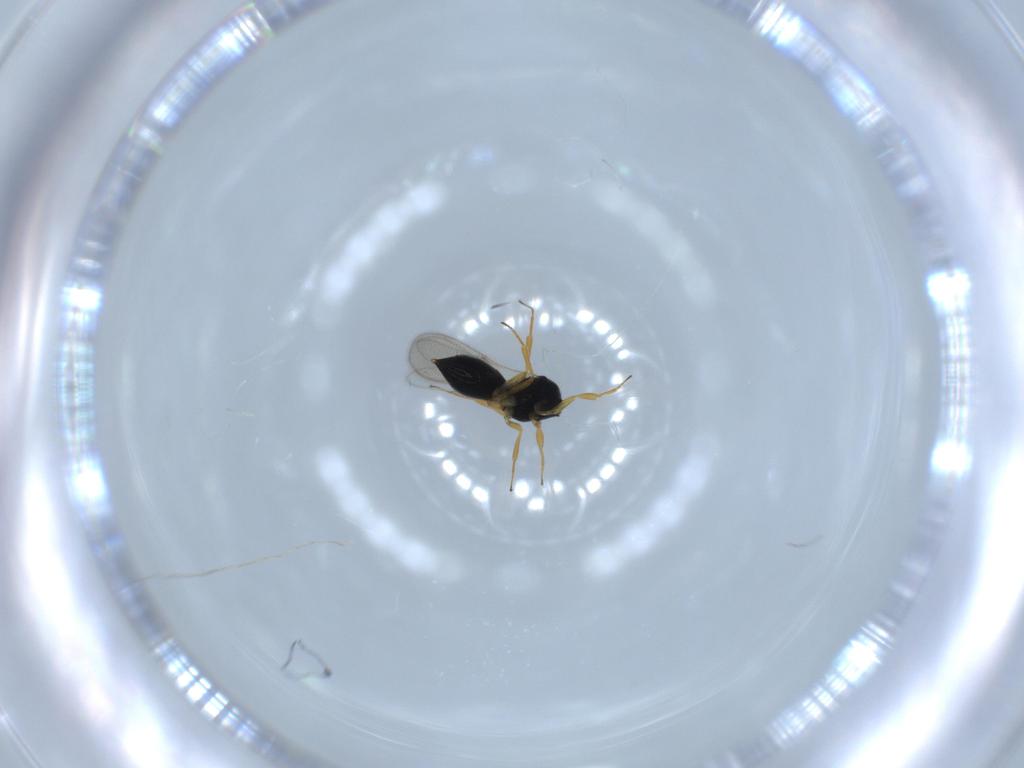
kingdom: Animalia
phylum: Arthropoda
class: Insecta
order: Hymenoptera
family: Scelionidae
